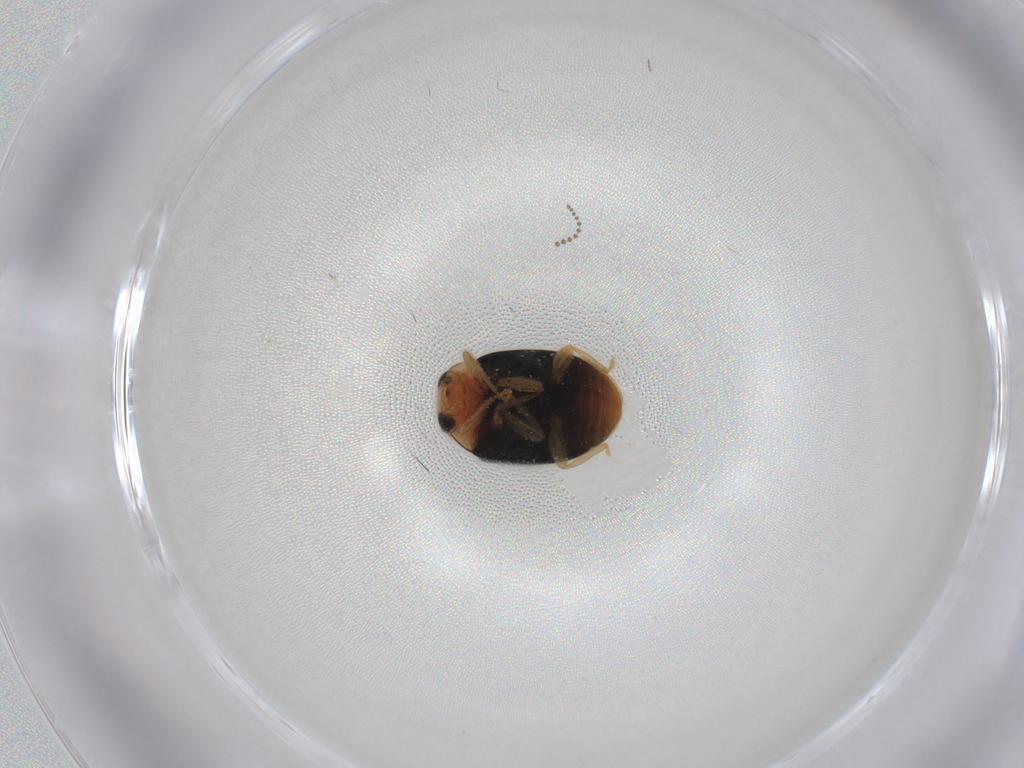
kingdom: Animalia
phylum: Arthropoda
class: Insecta
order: Coleoptera
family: Coccinellidae
